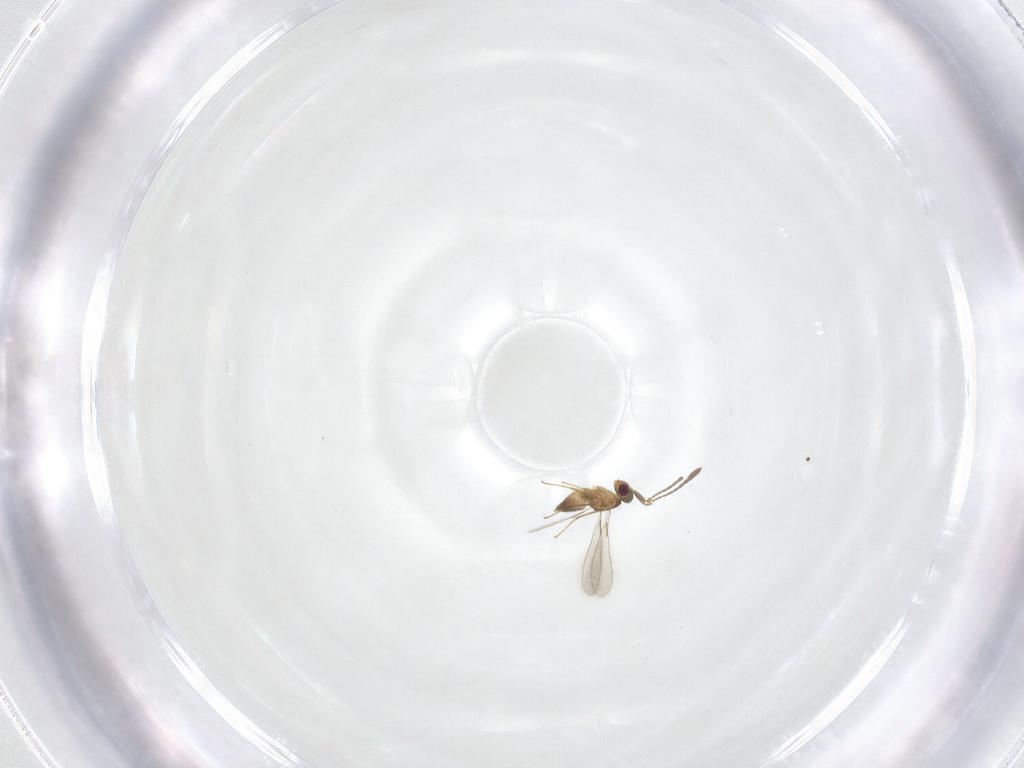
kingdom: Animalia
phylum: Arthropoda
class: Insecta
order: Hymenoptera
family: Mymaridae
